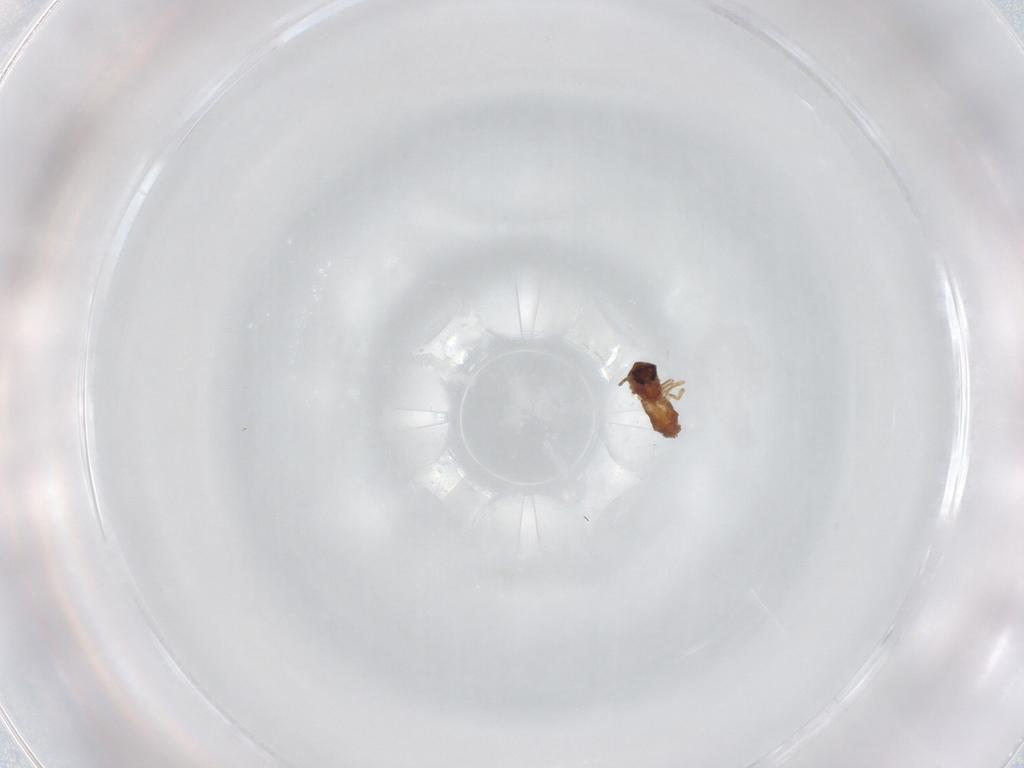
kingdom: Animalia
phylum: Arthropoda
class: Insecta
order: Diptera
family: Ceratopogonidae
